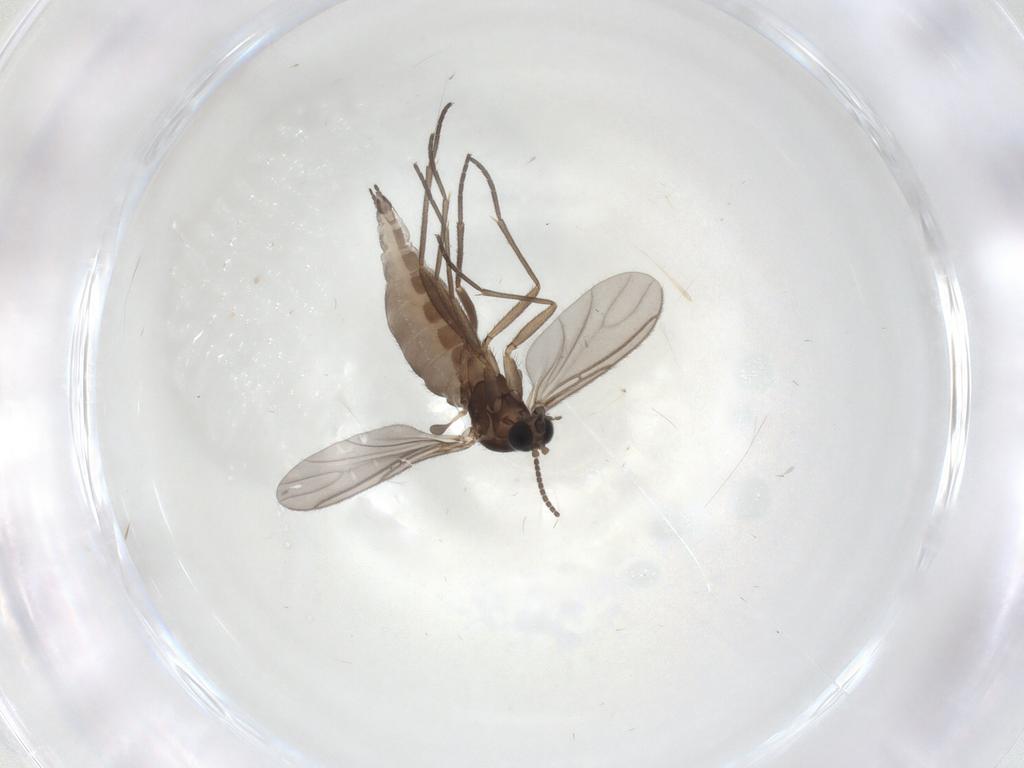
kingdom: Animalia
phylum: Arthropoda
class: Insecta
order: Diptera
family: Sciaridae
